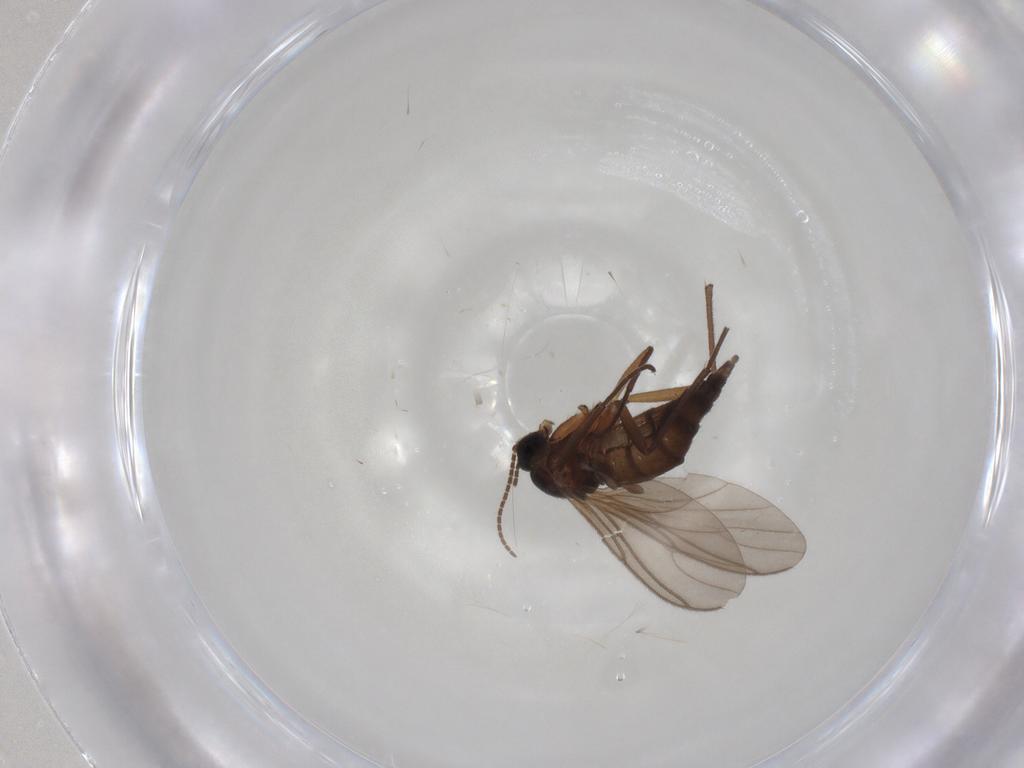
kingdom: Animalia
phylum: Arthropoda
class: Insecta
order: Diptera
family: Sciaridae
